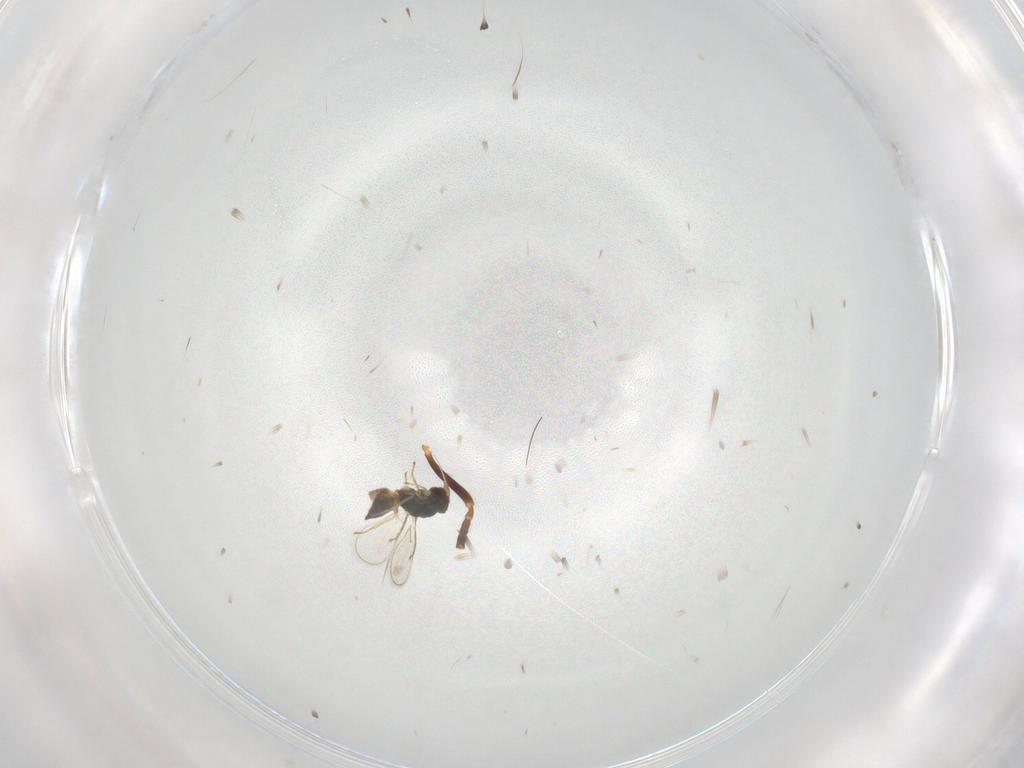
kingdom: Animalia
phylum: Arthropoda
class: Insecta
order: Hymenoptera
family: Eulophidae
